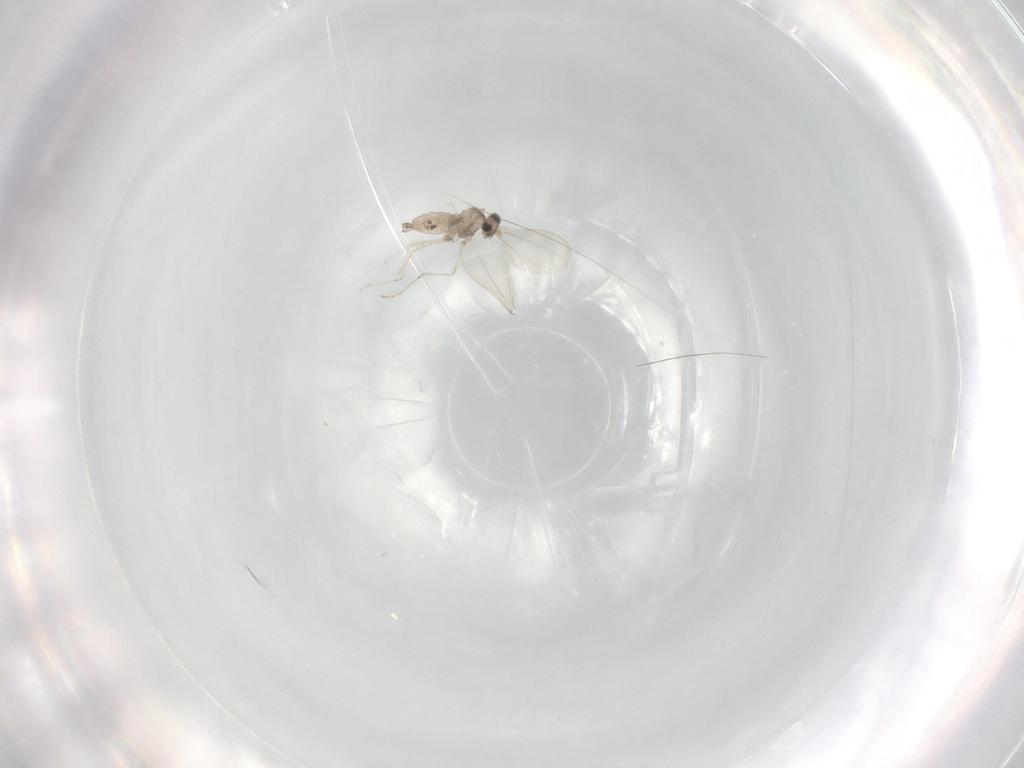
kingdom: Animalia
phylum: Arthropoda
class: Insecta
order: Diptera
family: Cecidomyiidae
